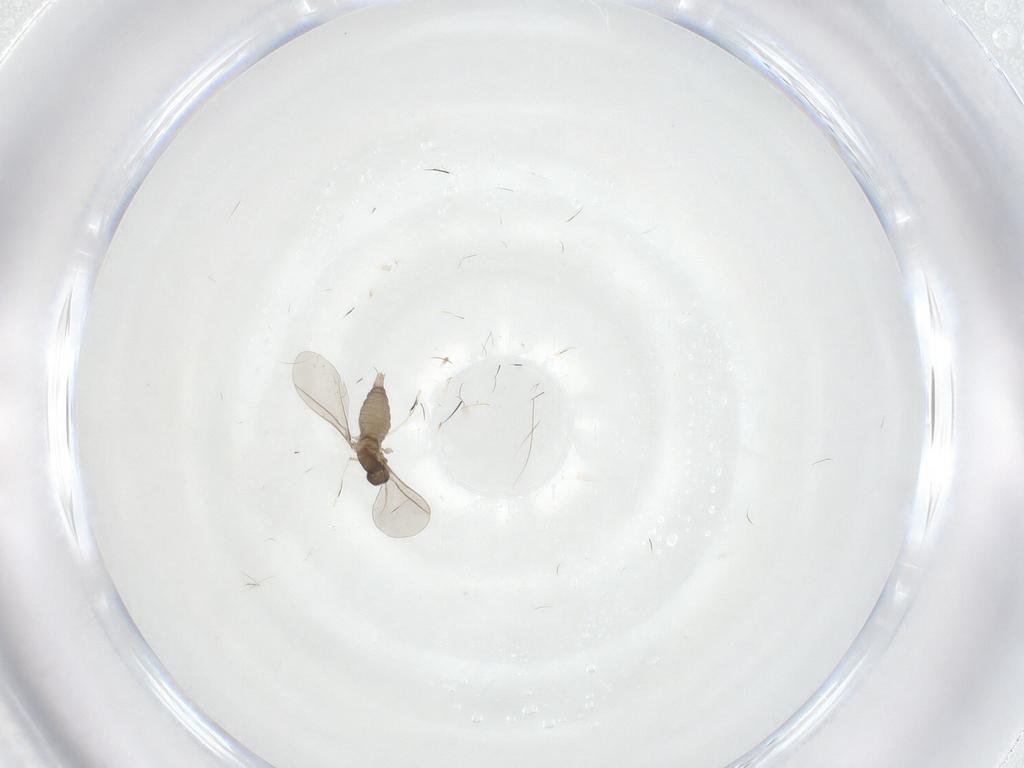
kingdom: Animalia
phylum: Arthropoda
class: Insecta
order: Diptera
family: Cecidomyiidae
